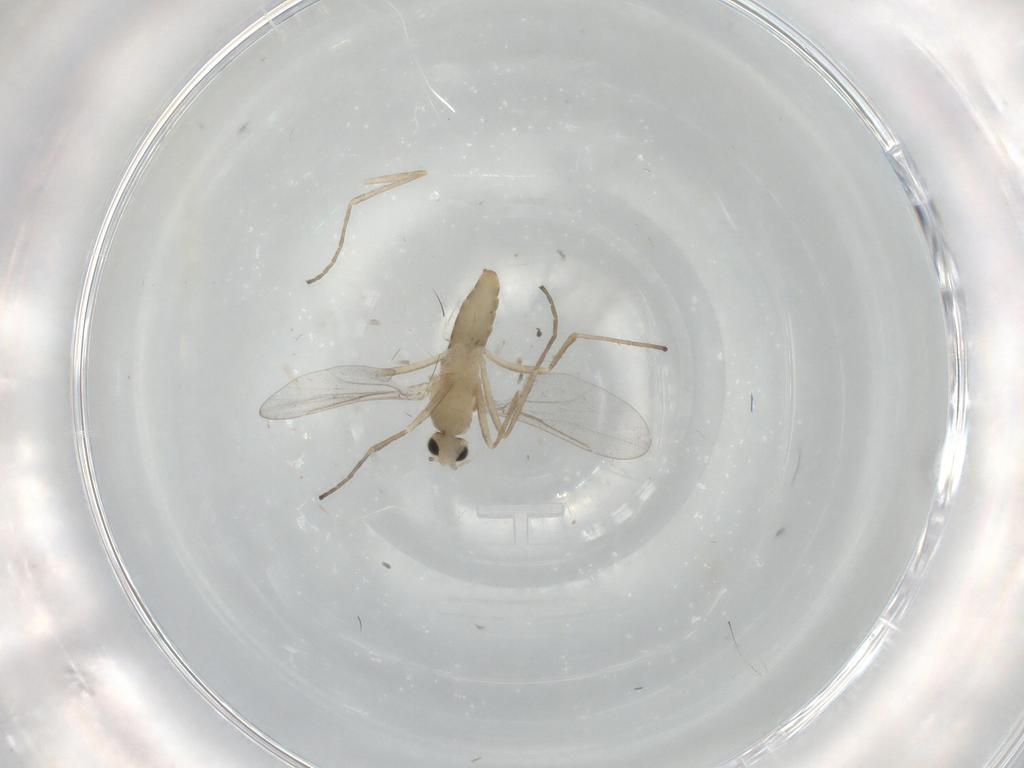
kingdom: Animalia
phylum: Arthropoda
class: Insecta
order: Diptera
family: Cecidomyiidae
